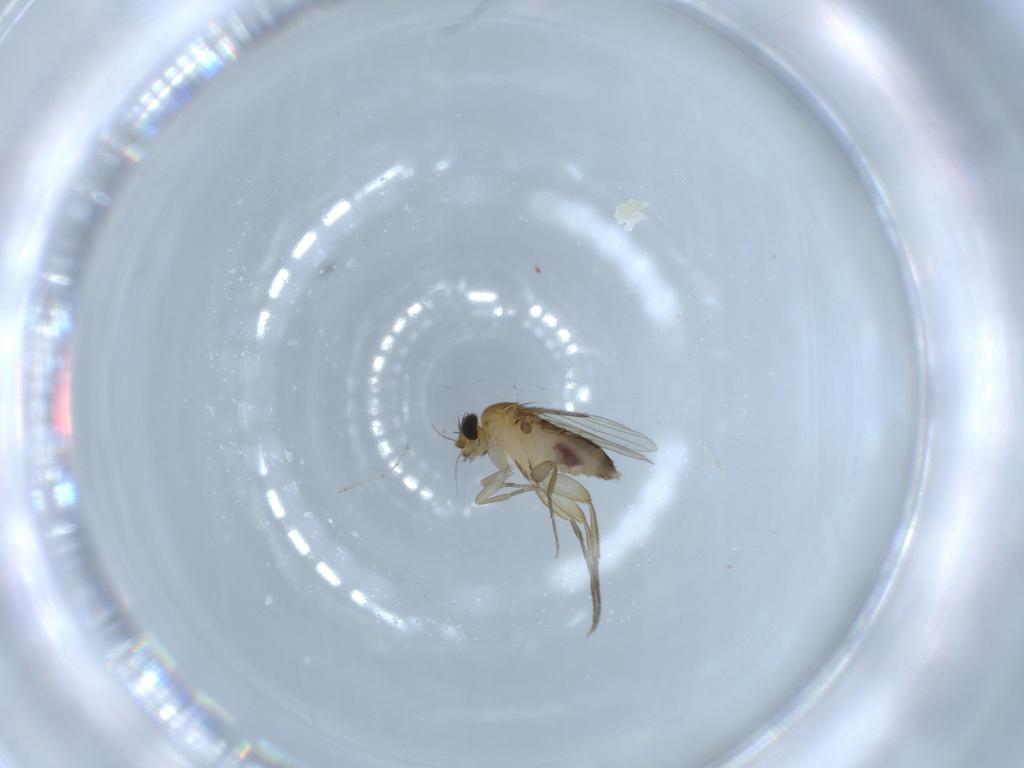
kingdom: Animalia
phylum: Arthropoda
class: Insecta
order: Diptera
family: Phoridae
